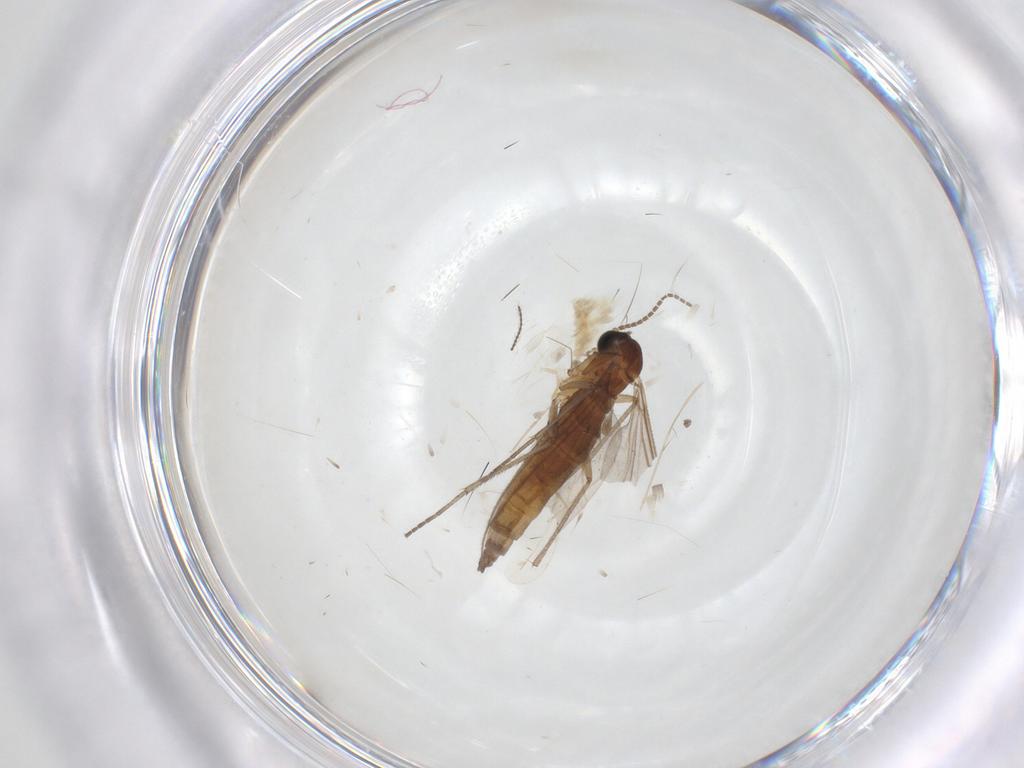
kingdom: Animalia
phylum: Arthropoda
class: Insecta
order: Diptera
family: Sciaridae
